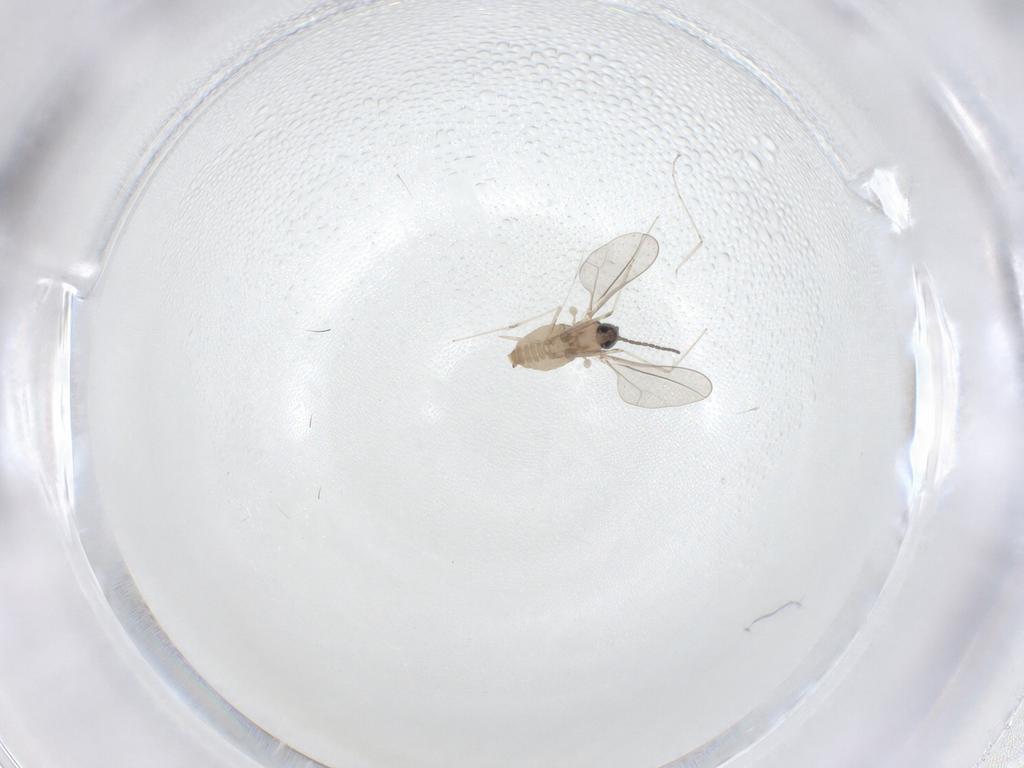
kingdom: Animalia
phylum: Arthropoda
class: Insecta
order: Diptera
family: Cecidomyiidae
